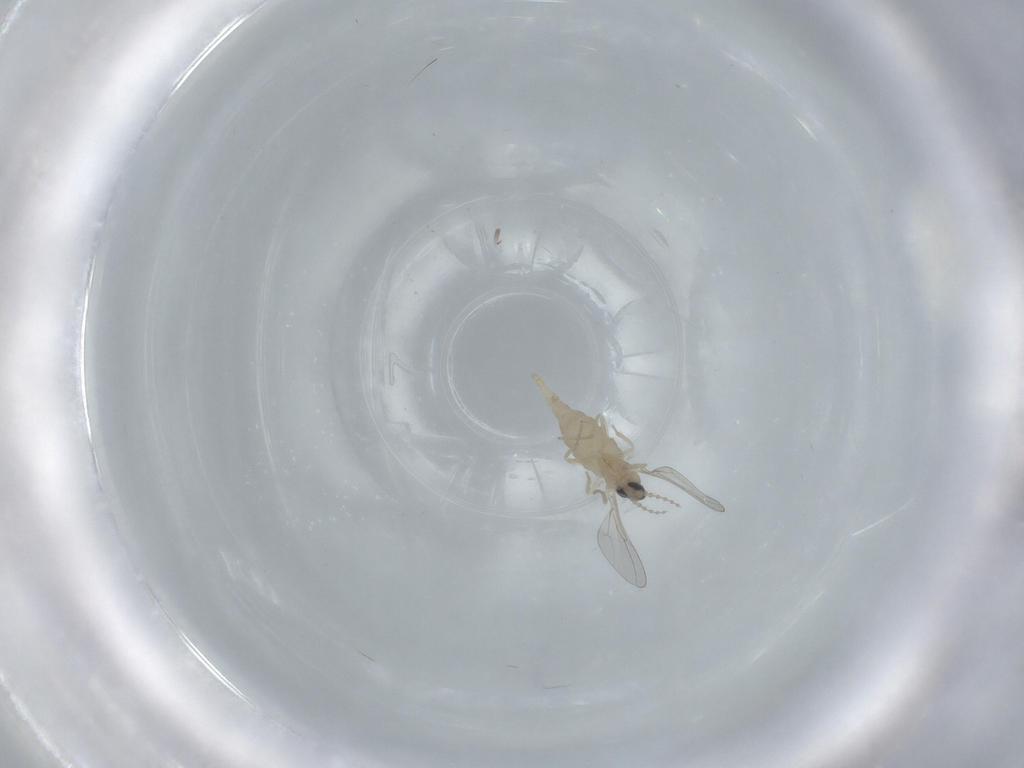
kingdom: Animalia
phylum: Arthropoda
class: Insecta
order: Diptera
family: Cecidomyiidae
